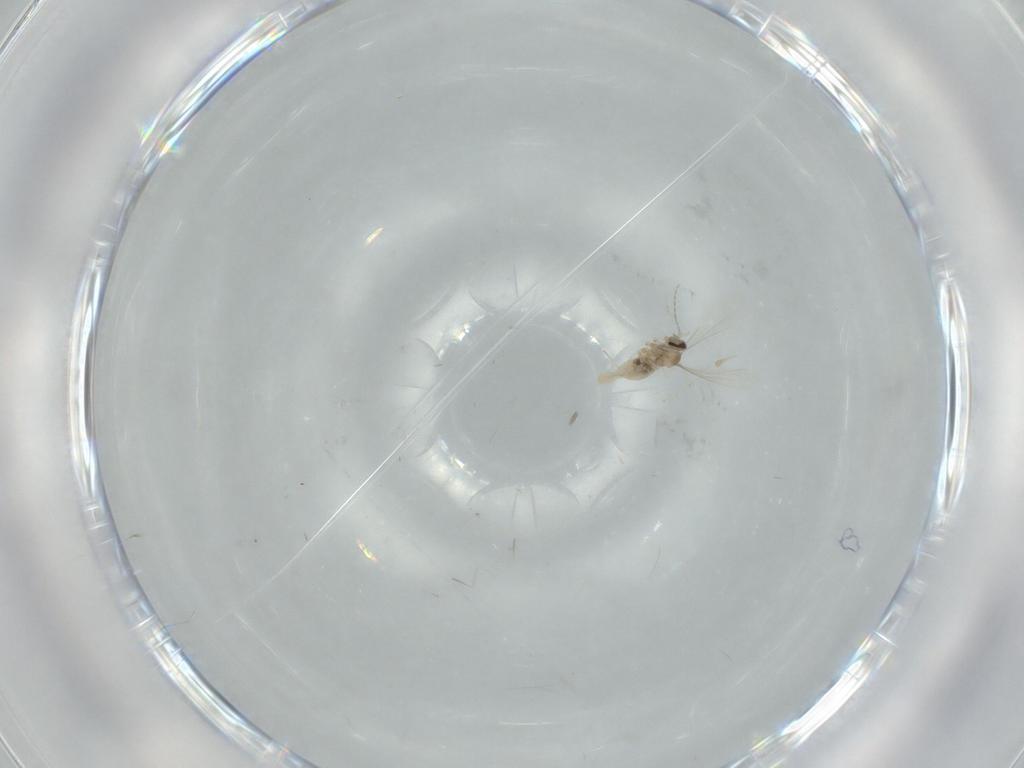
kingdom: Animalia
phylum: Arthropoda
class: Insecta
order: Diptera
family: Cecidomyiidae
